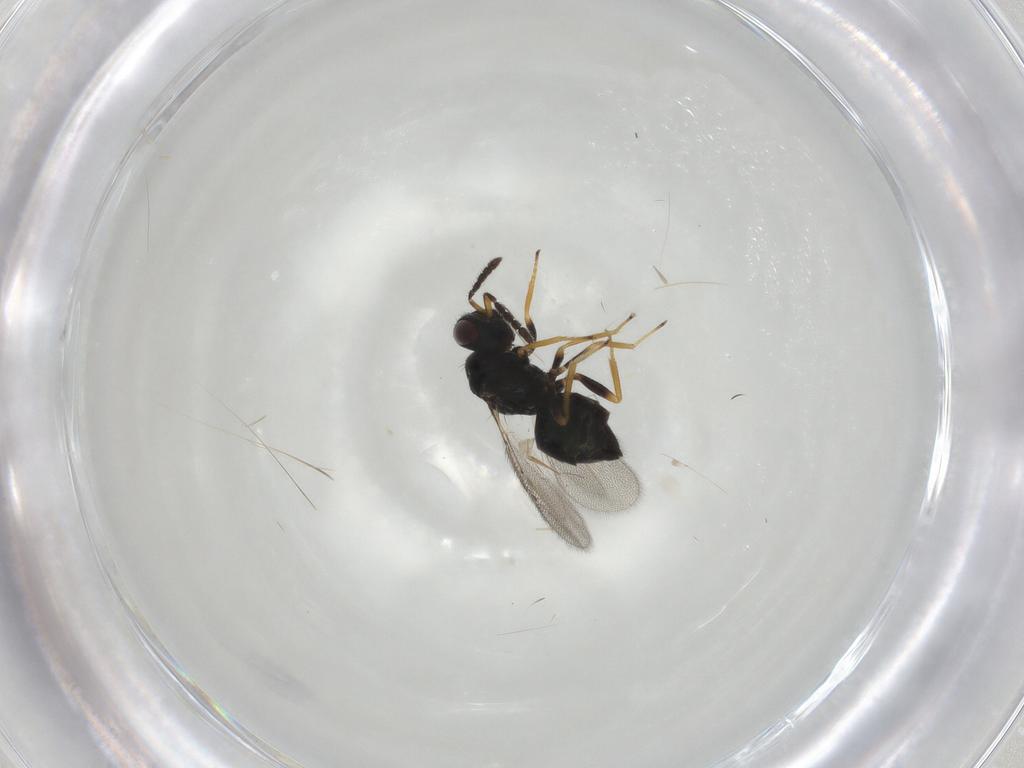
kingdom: Animalia
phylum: Arthropoda
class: Insecta
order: Hymenoptera
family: Eulophidae
